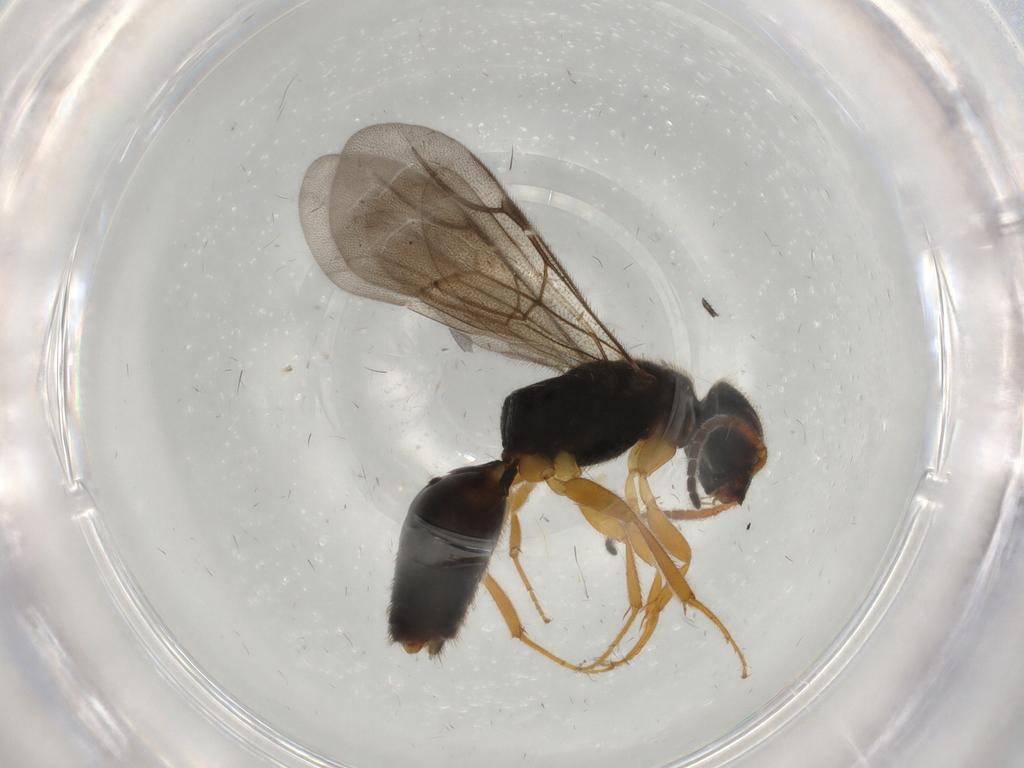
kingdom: Animalia
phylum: Arthropoda
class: Insecta
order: Hymenoptera
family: Bethylidae
